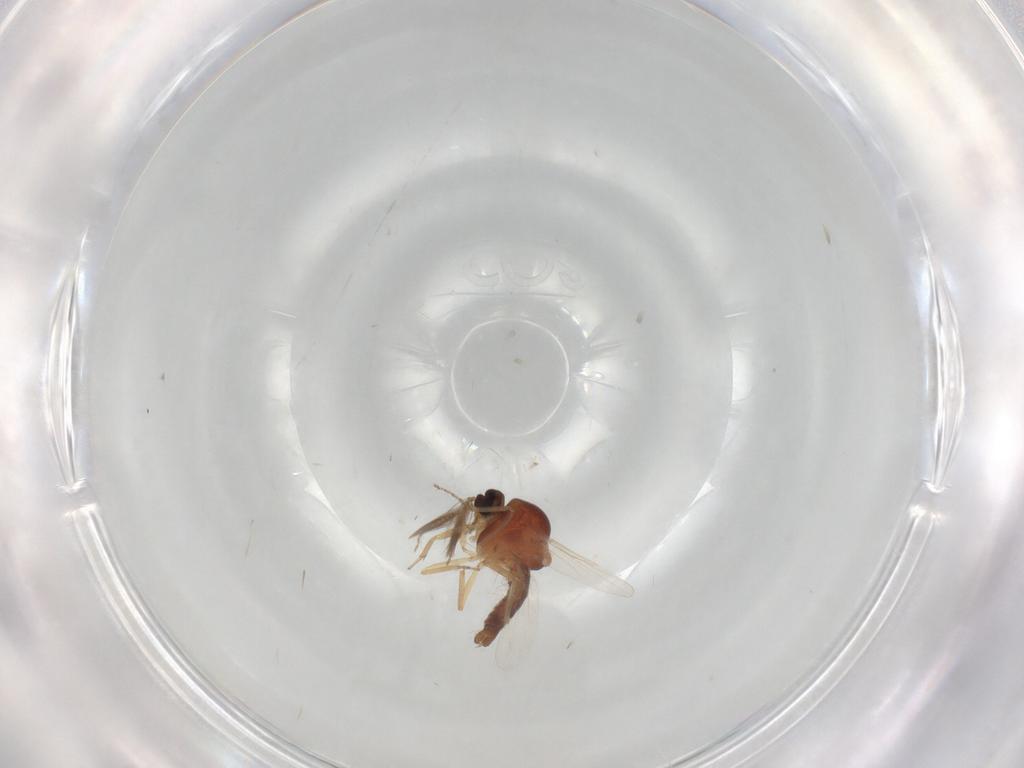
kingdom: Animalia
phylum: Arthropoda
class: Insecta
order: Diptera
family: Ceratopogonidae
